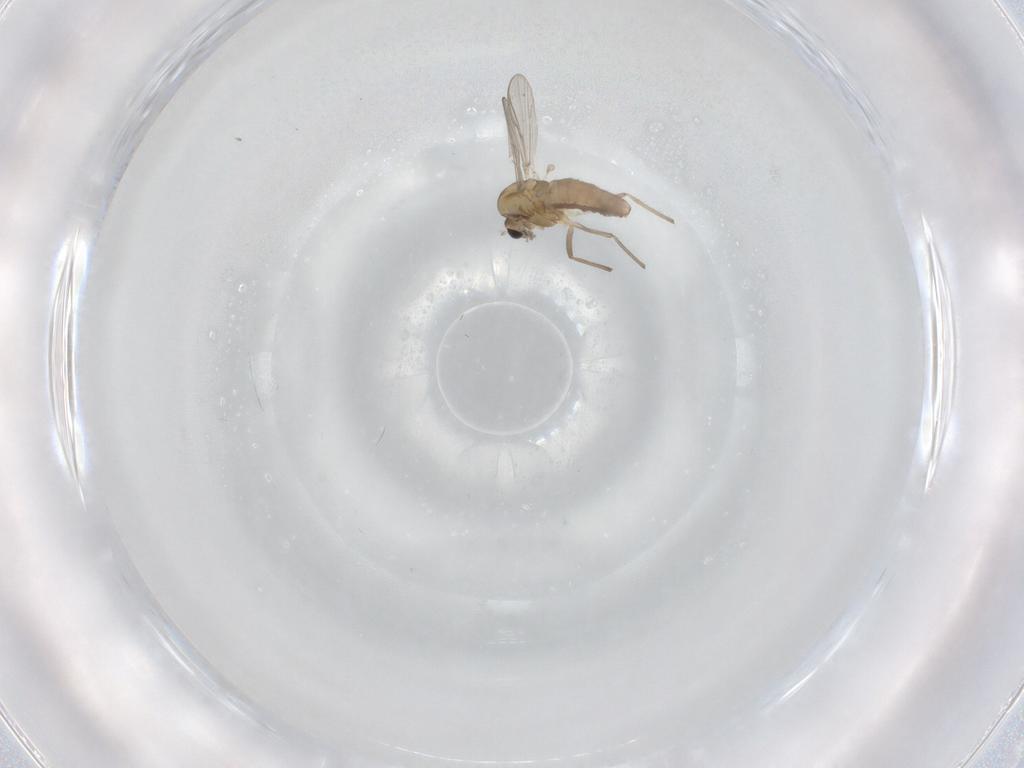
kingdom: Animalia
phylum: Arthropoda
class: Insecta
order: Diptera
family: Chironomidae
